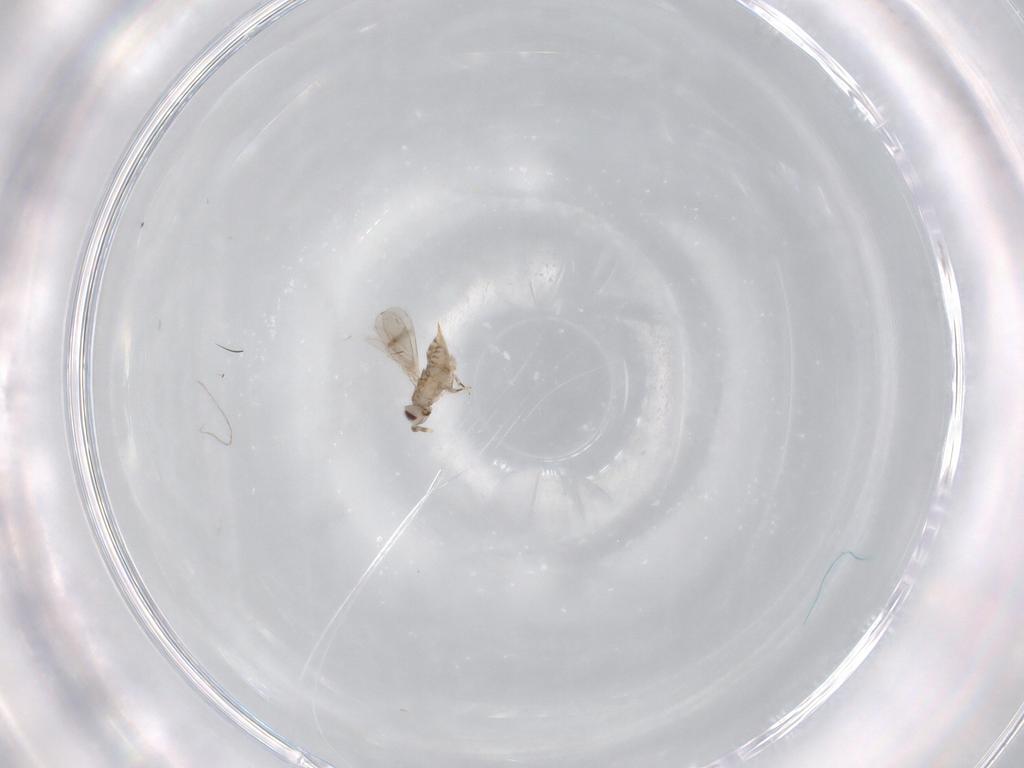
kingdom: Animalia
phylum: Arthropoda
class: Insecta
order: Hymenoptera
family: Aphelinidae
